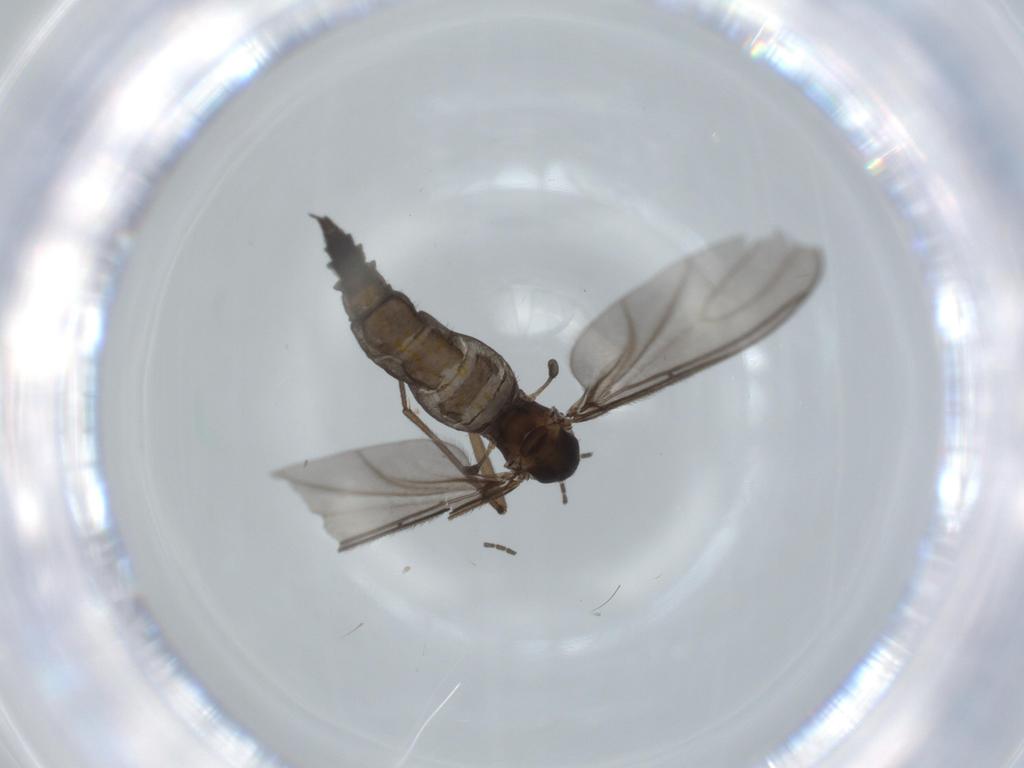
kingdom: Animalia
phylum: Arthropoda
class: Insecta
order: Diptera
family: Sciaridae
